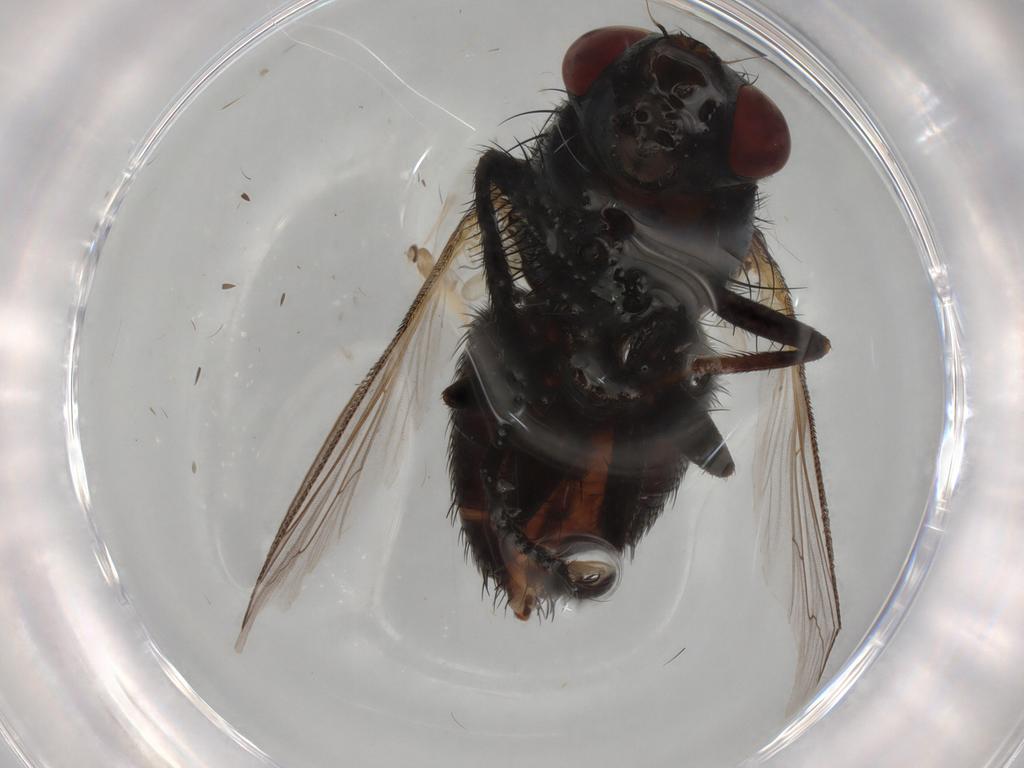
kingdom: Animalia
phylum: Arthropoda
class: Insecta
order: Diptera
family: Sarcophagidae
